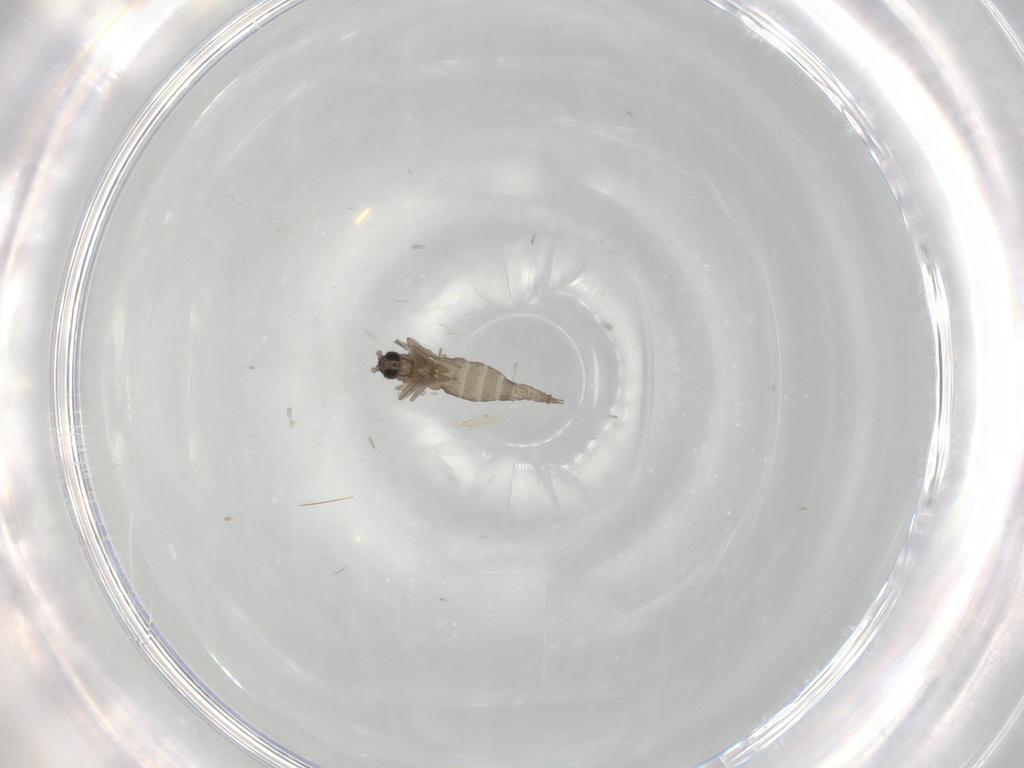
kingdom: Animalia
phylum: Arthropoda
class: Insecta
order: Diptera
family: Cecidomyiidae
